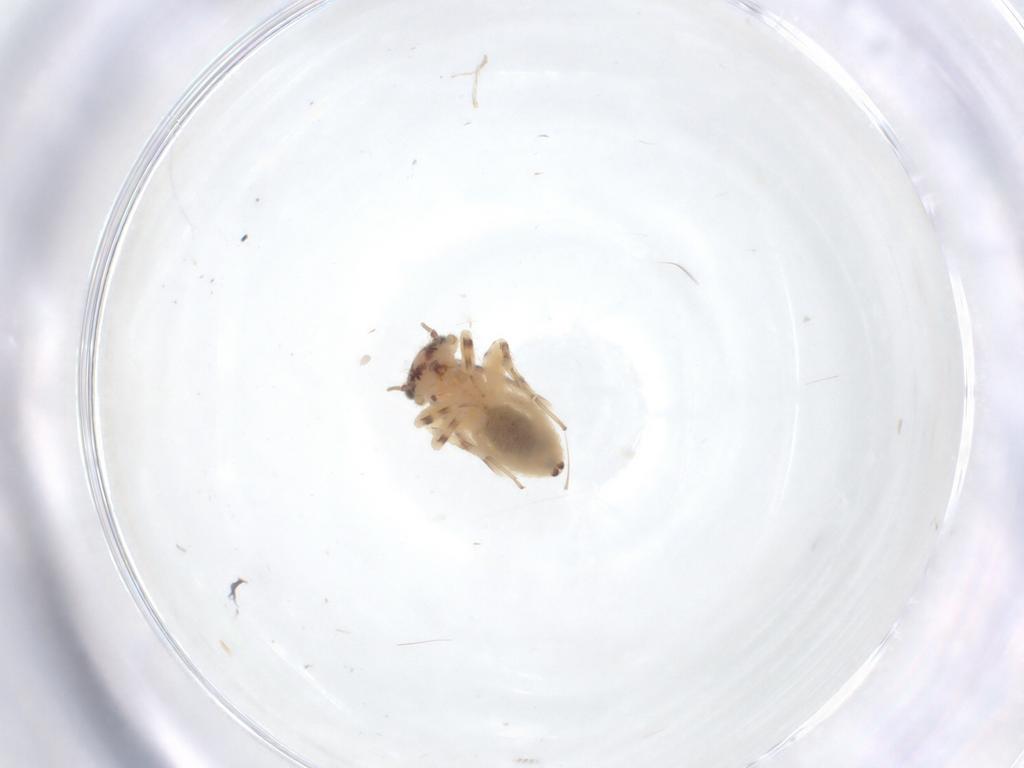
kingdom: Animalia
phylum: Arthropoda
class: Insecta
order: Psocodea
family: Lepidopsocidae
